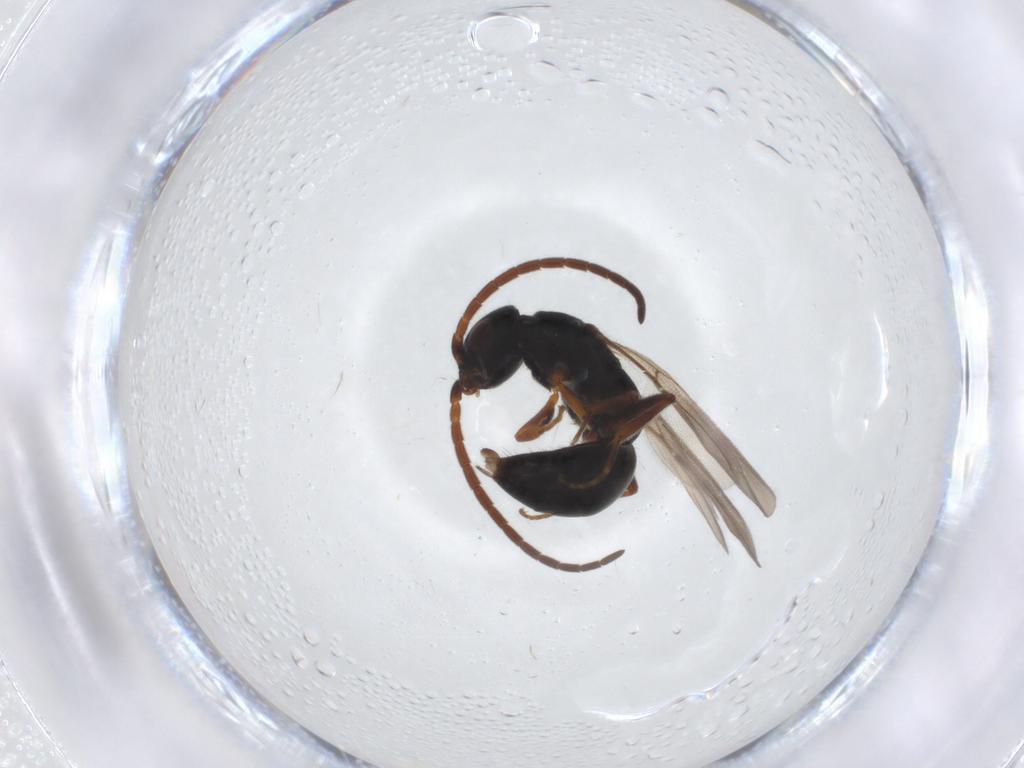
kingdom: Animalia
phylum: Arthropoda
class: Insecta
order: Hymenoptera
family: Bethylidae
